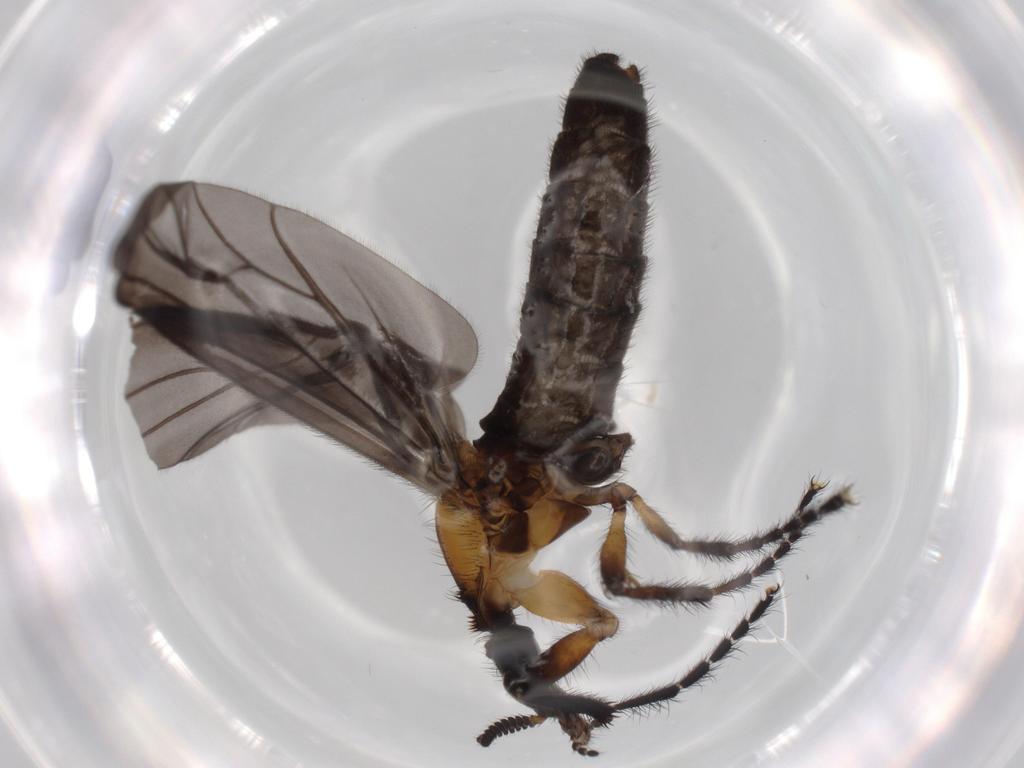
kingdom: Animalia
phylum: Arthropoda
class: Insecta
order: Diptera
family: Cecidomyiidae
